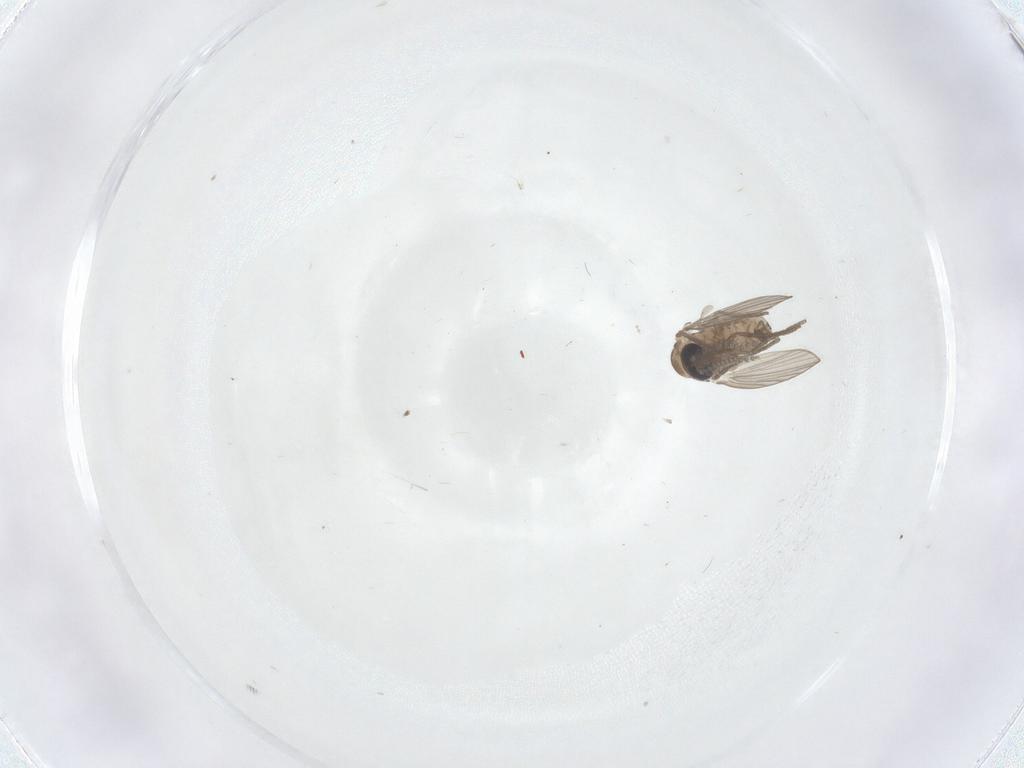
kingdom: Animalia
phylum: Arthropoda
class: Insecta
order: Diptera
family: Psychodidae
